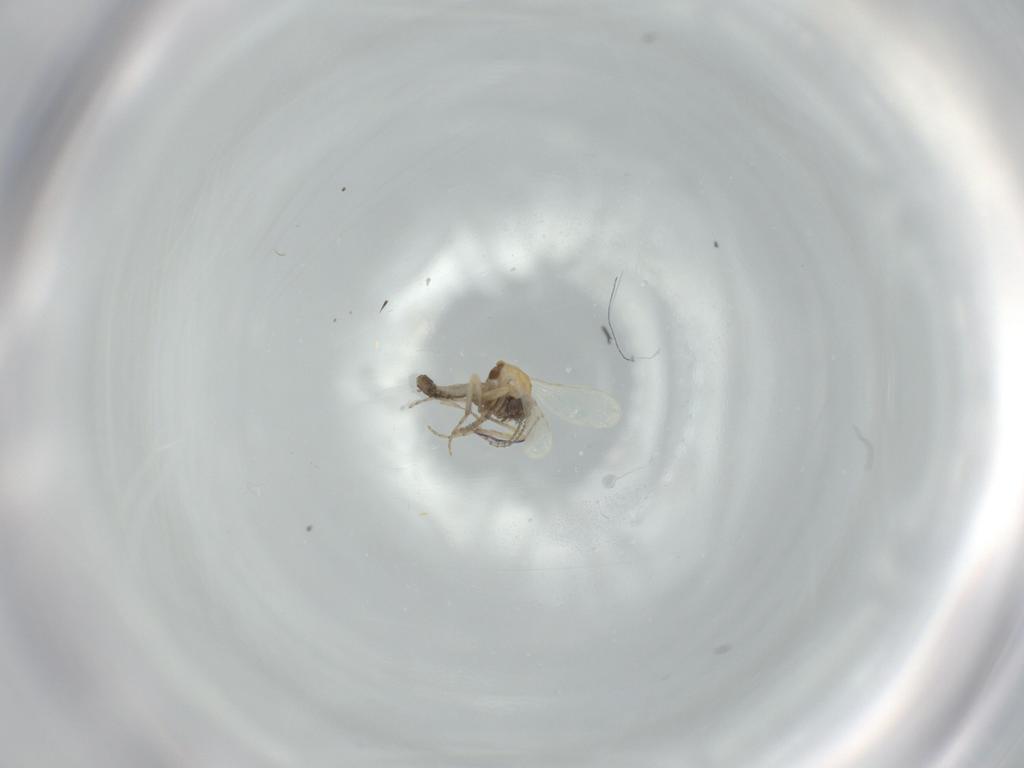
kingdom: Animalia
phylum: Arthropoda
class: Insecta
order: Diptera
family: Ceratopogonidae
